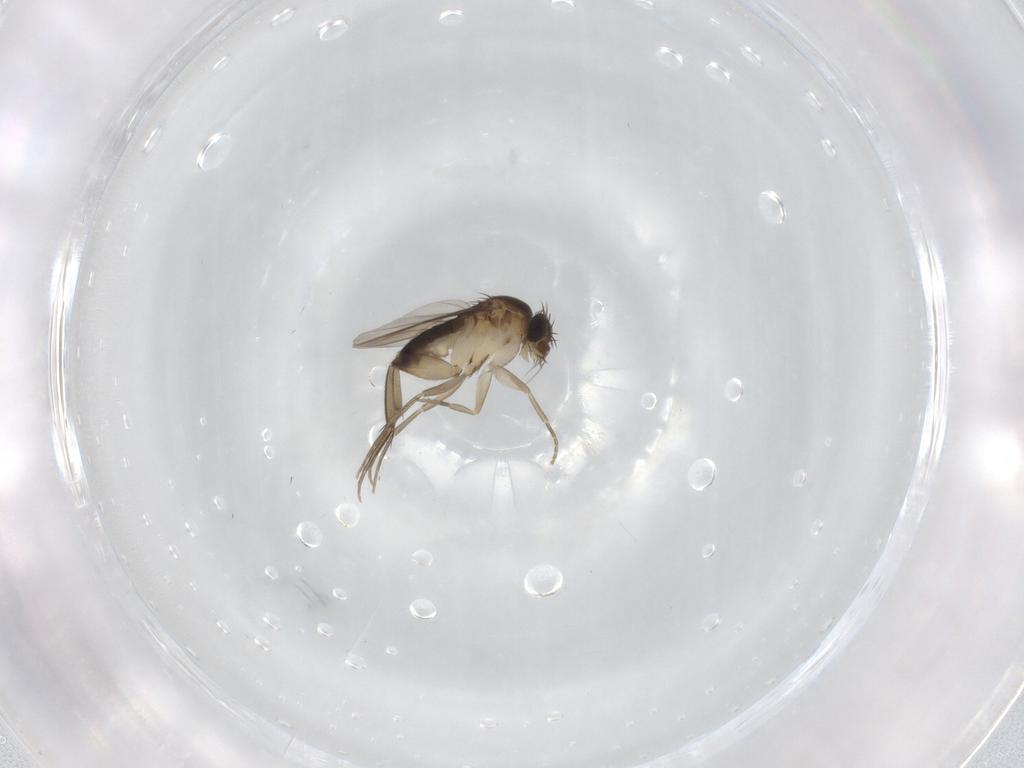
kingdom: Animalia
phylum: Arthropoda
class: Insecta
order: Diptera
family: Phoridae
